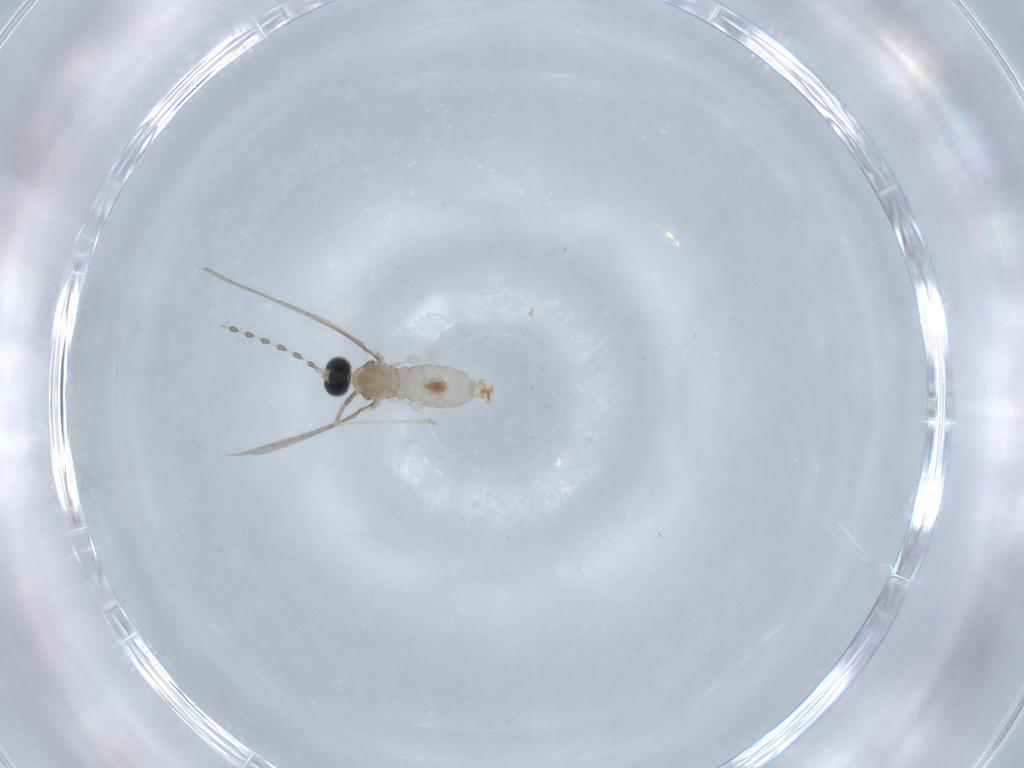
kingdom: Animalia
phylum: Arthropoda
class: Insecta
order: Diptera
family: Cecidomyiidae
